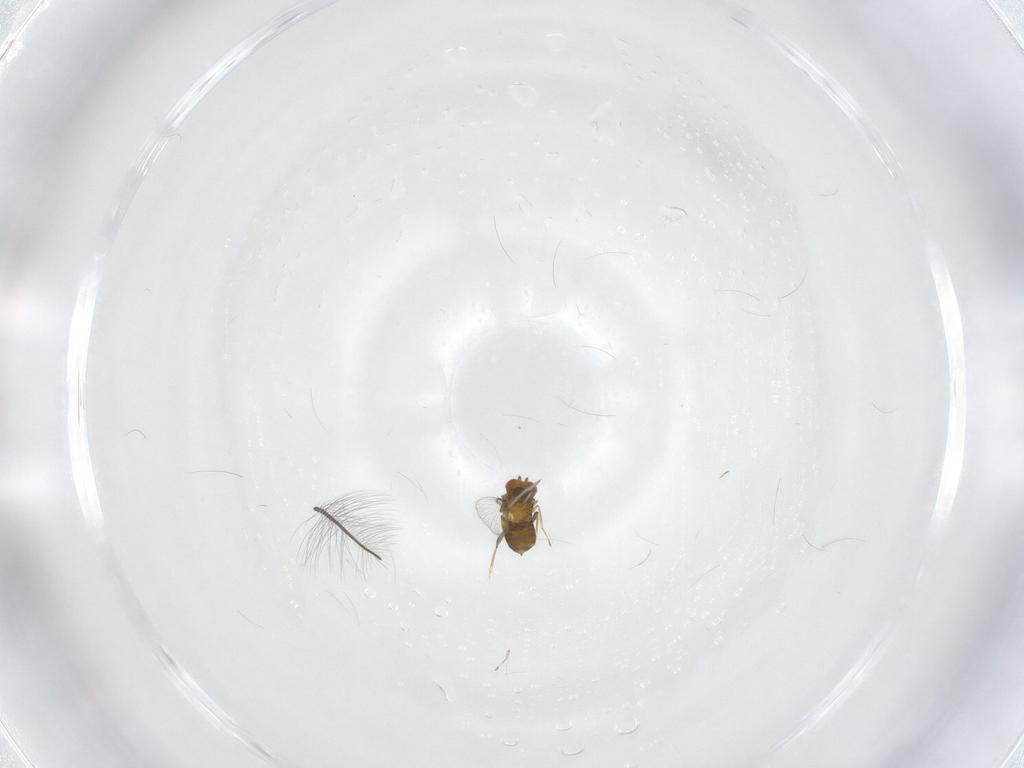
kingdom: Animalia
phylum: Arthropoda
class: Insecta
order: Hymenoptera
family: Trichogrammatidae
